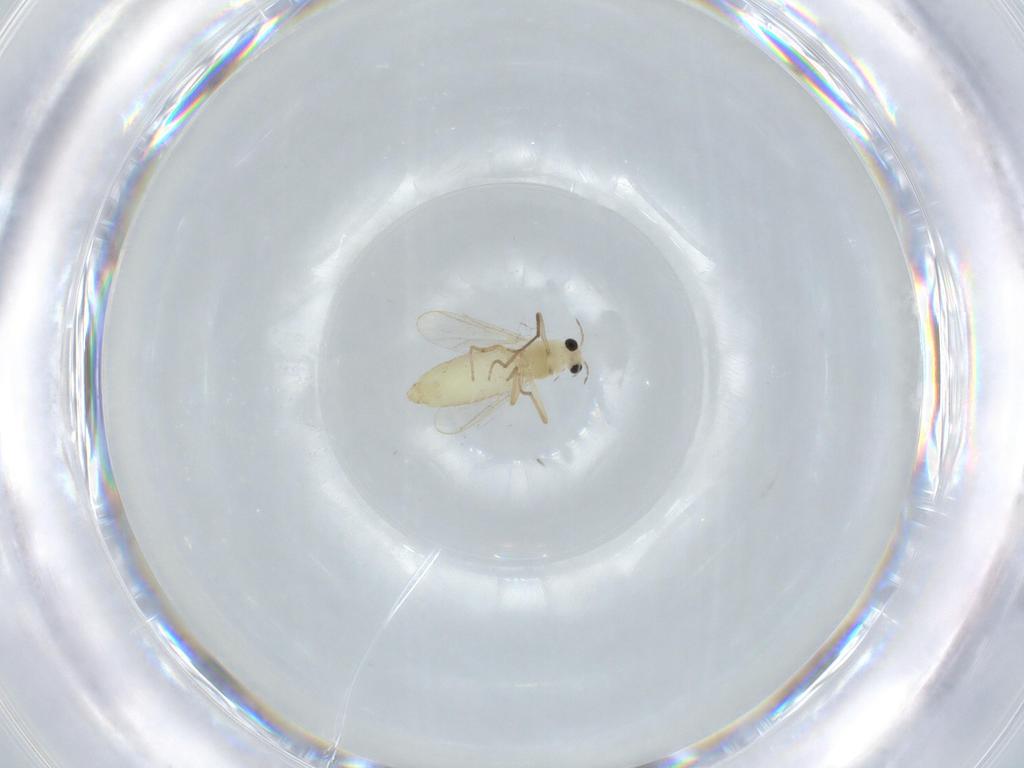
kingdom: Animalia
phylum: Arthropoda
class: Insecta
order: Diptera
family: Chironomidae
